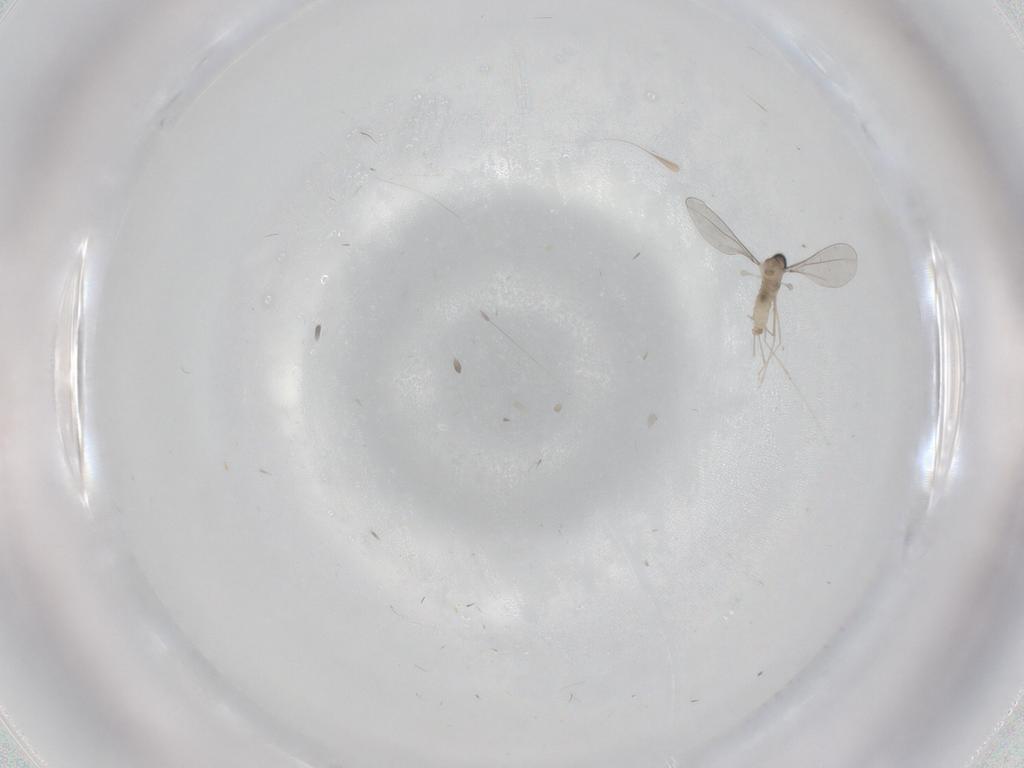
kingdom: Animalia
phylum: Arthropoda
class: Insecta
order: Diptera
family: Cecidomyiidae
